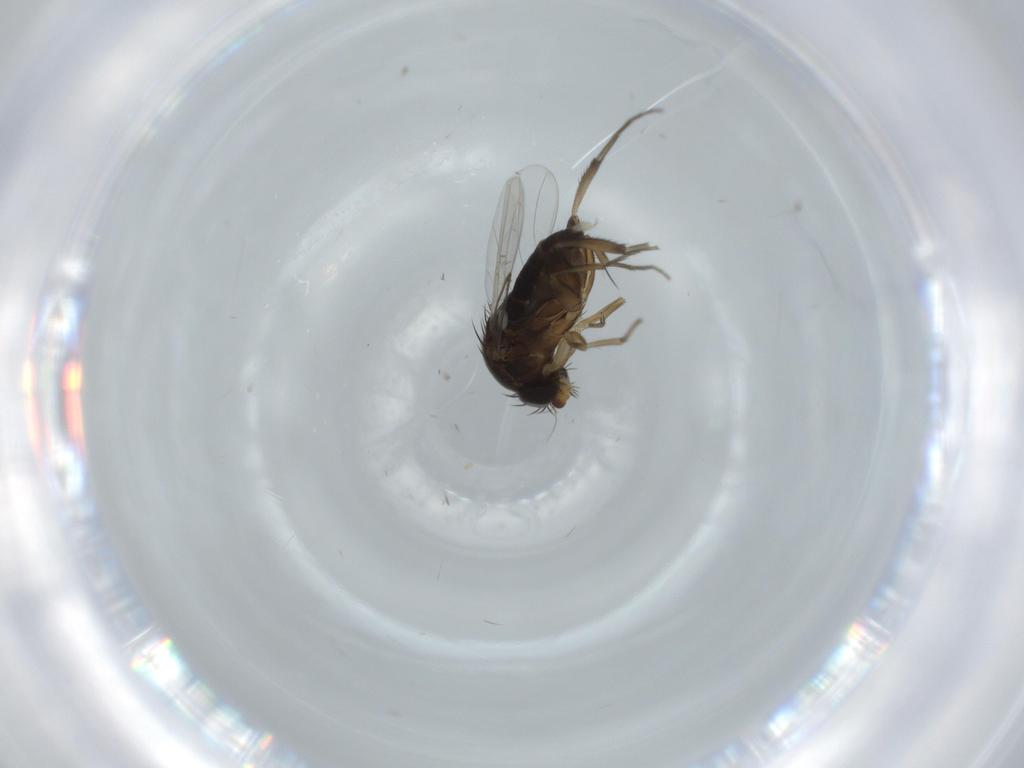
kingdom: Animalia
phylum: Arthropoda
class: Insecta
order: Diptera
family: Phoridae
